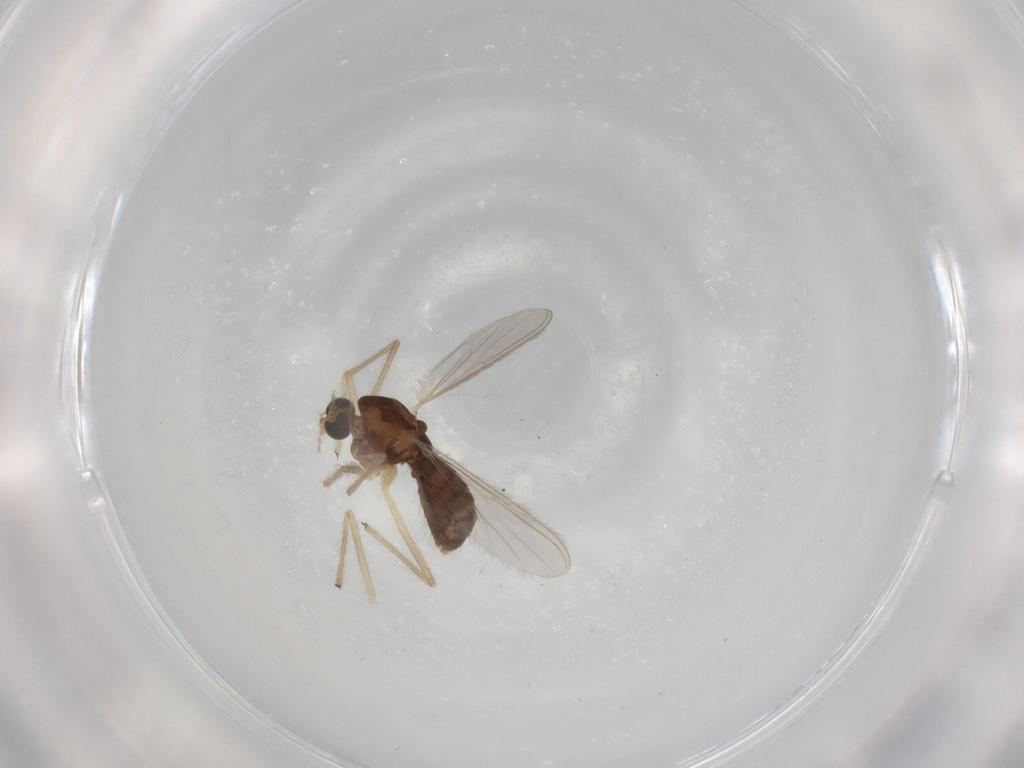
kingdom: Animalia
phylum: Arthropoda
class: Insecta
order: Diptera
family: Chironomidae
